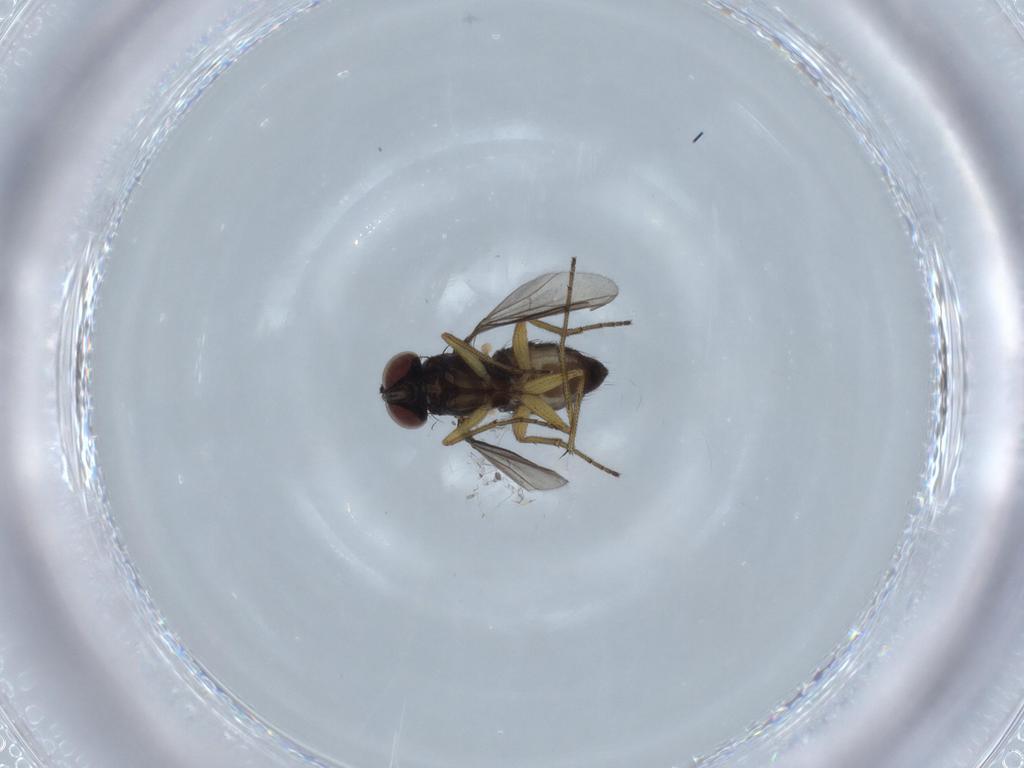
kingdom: Animalia
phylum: Arthropoda
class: Insecta
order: Diptera
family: Dolichopodidae
